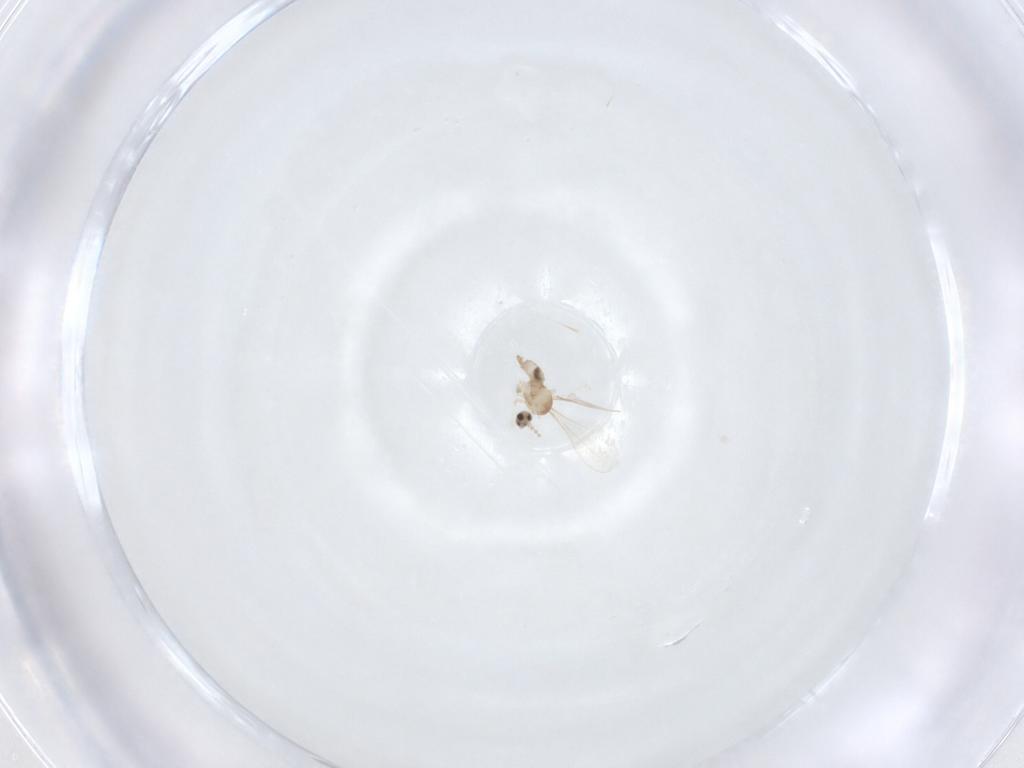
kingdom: Animalia
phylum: Arthropoda
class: Insecta
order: Diptera
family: Cecidomyiidae
